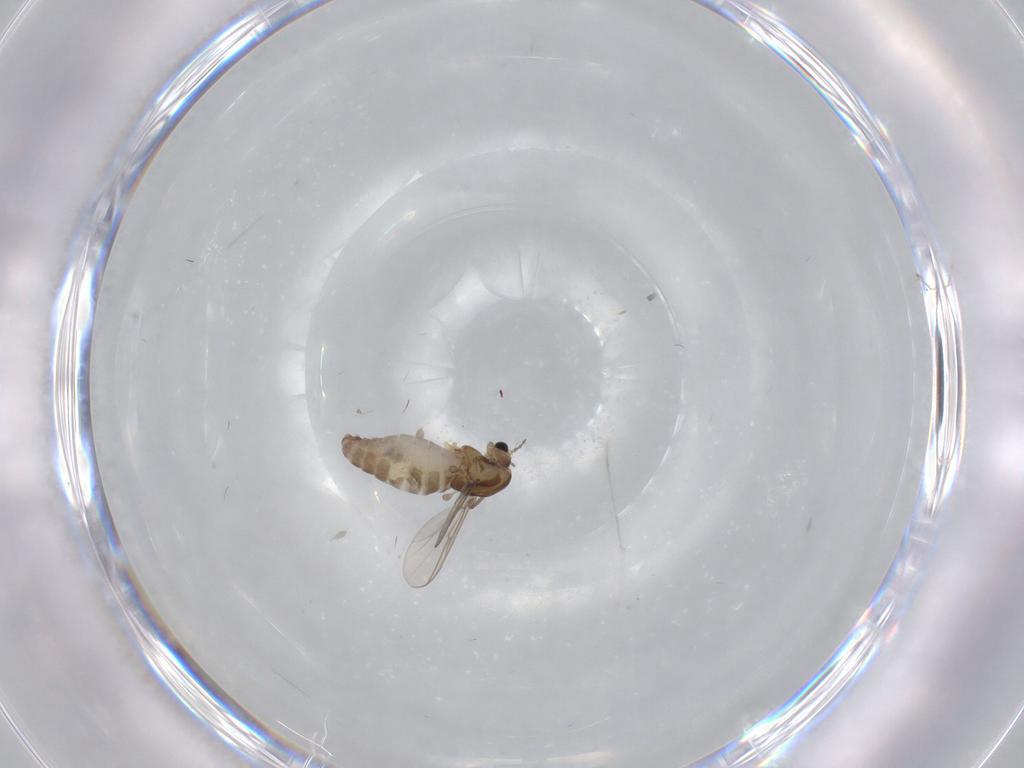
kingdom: Animalia
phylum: Arthropoda
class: Insecta
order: Diptera
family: Chironomidae
